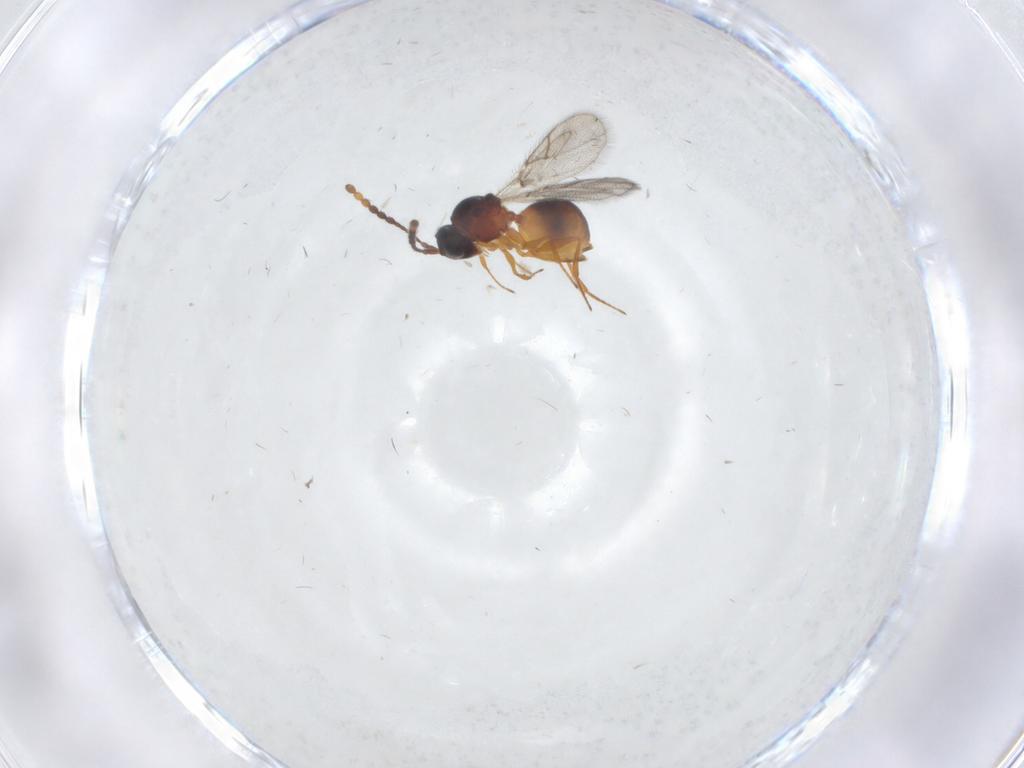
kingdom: Animalia
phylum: Arthropoda
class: Insecta
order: Hymenoptera
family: Figitidae
